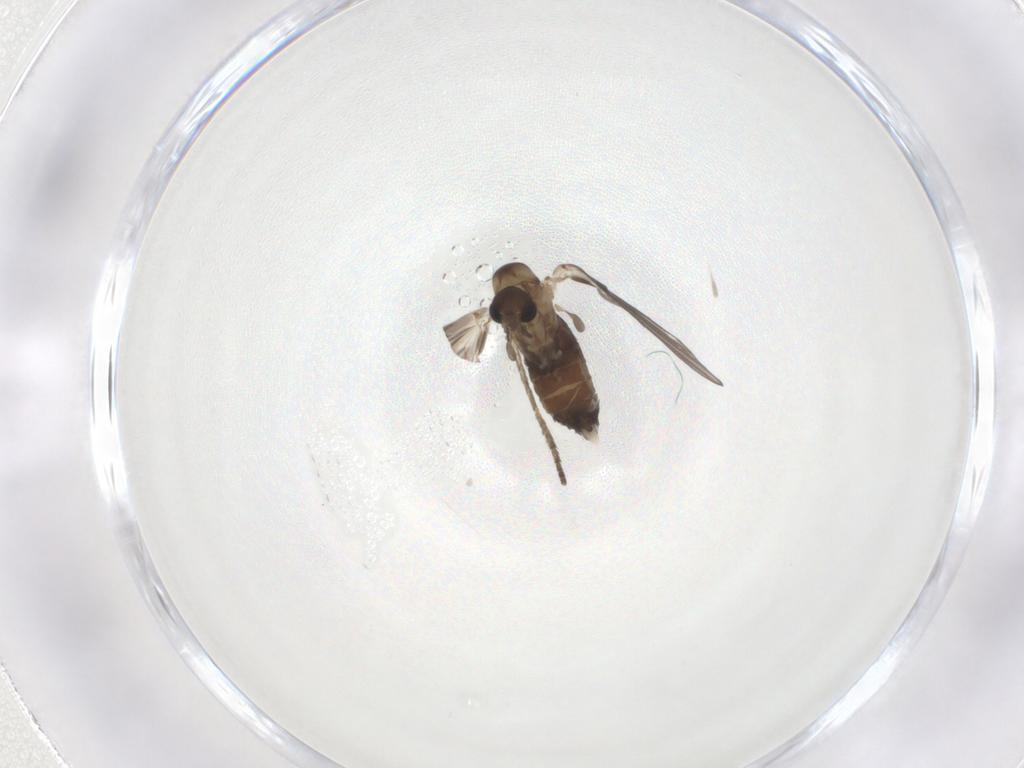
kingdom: Animalia
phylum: Arthropoda
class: Insecta
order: Diptera
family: Psychodidae
